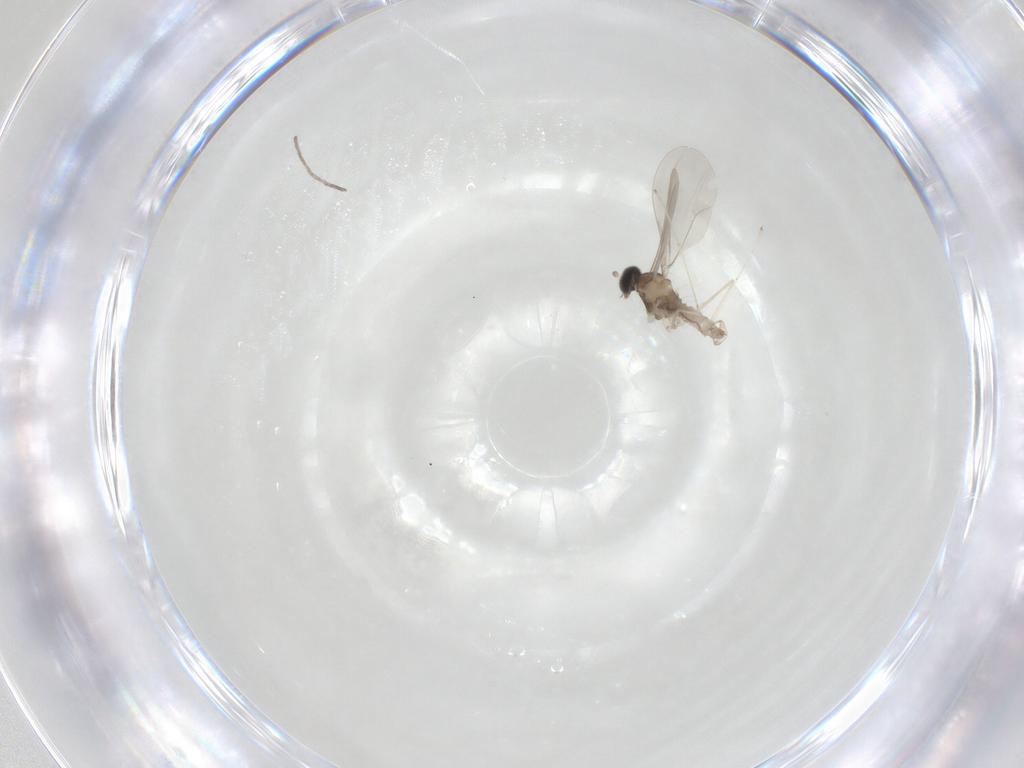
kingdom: Animalia
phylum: Arthropoda
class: Insecta
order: Diptera
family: Cecidomyiidae
